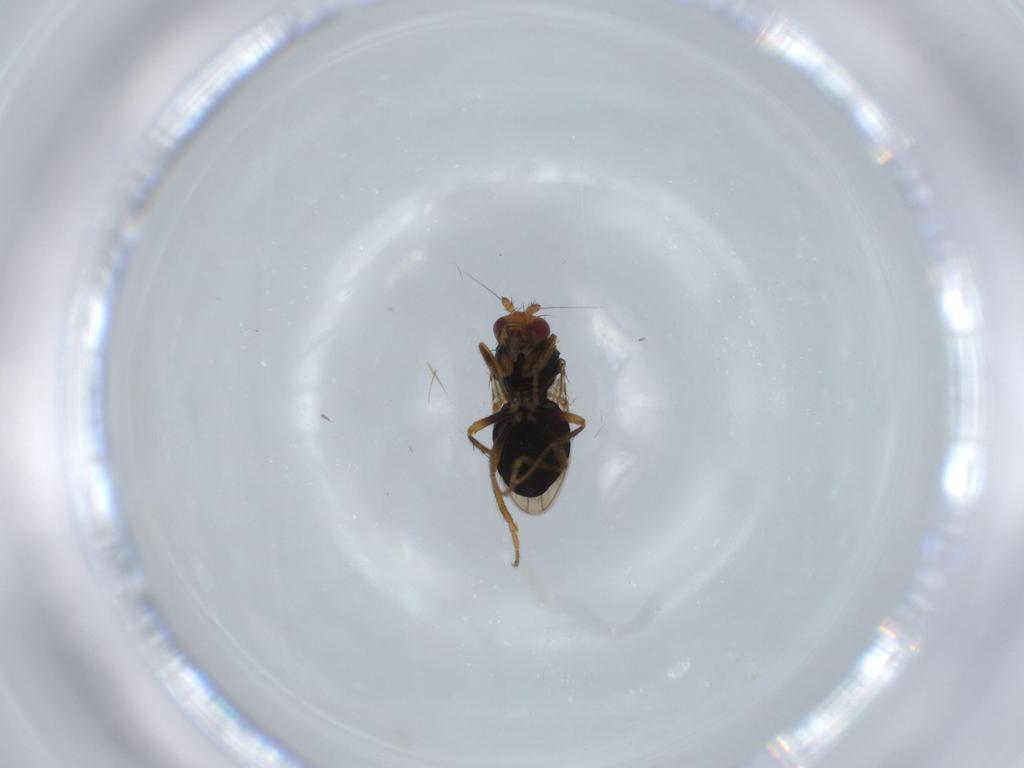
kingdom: Animalia
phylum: Arthropoda
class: Insecta
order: Diptera
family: Sphaeroceridae
